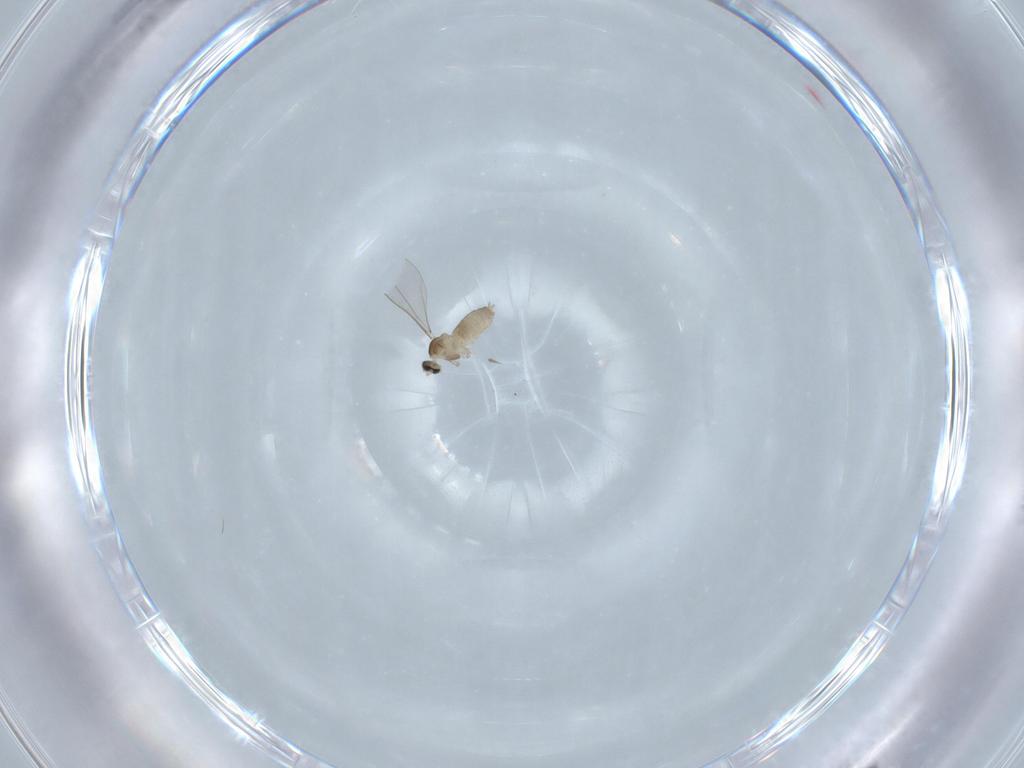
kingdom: Animalia
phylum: Arthropoda
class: Insecta
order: Diptera
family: Cecidomyiidae
